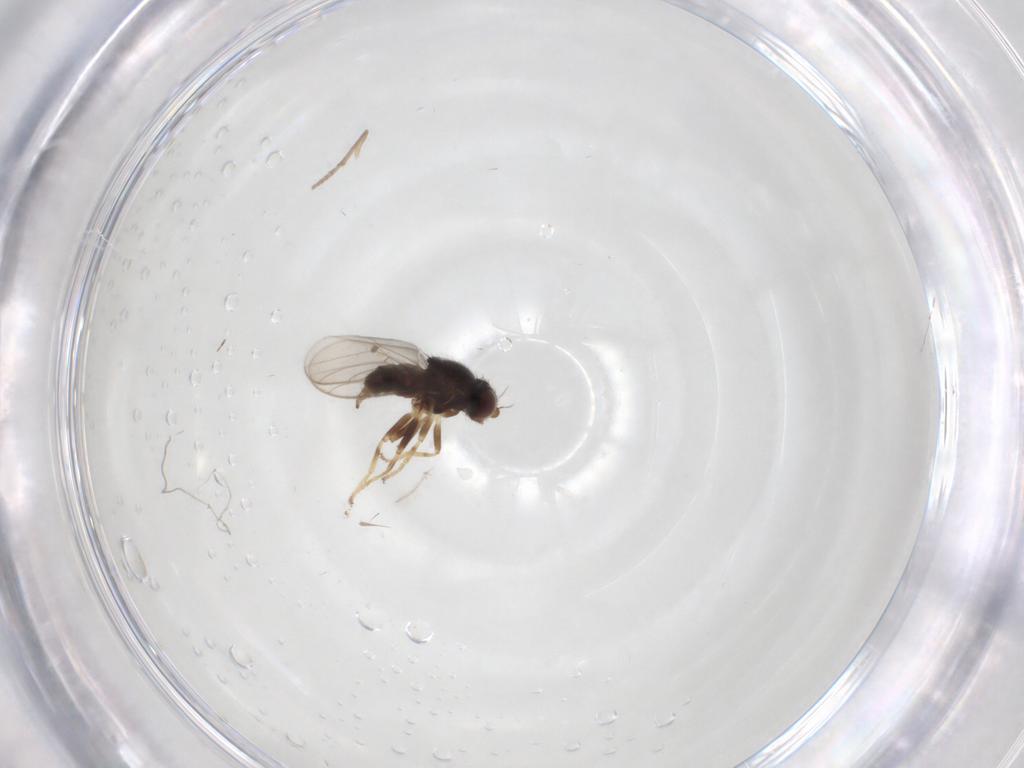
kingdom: Animalia
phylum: Arthropoda
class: Insecta
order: Diptera
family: Chloropidae
